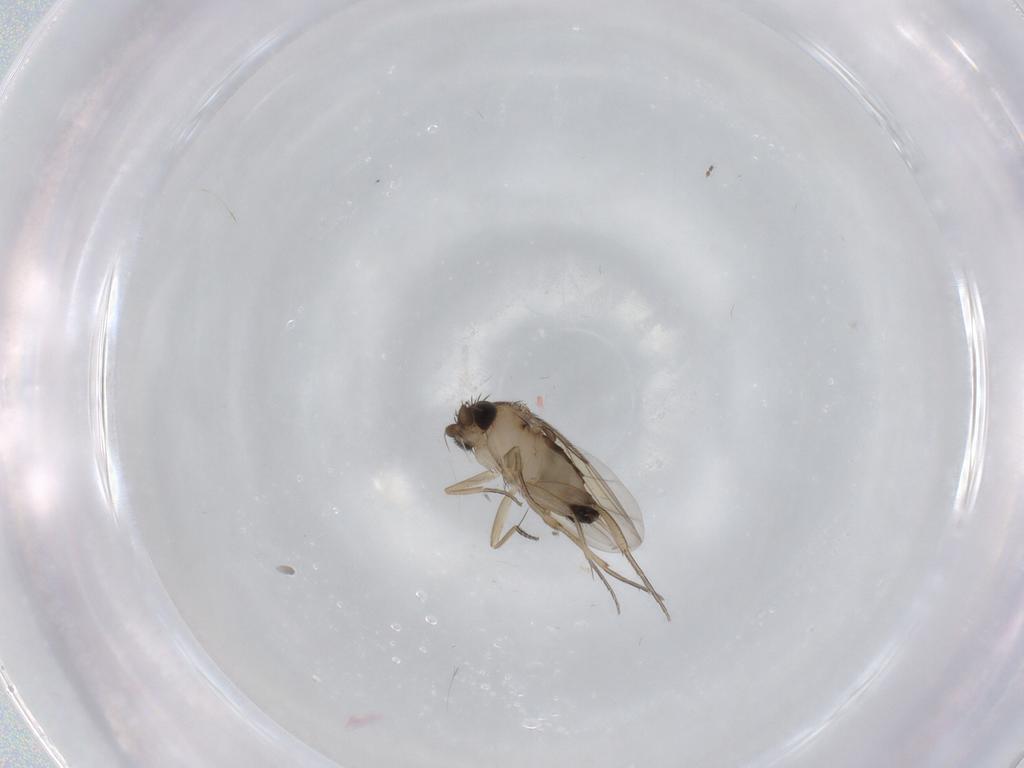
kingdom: Animalia
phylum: Arthropoda
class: Insecta
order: Diptera
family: Phoridae
